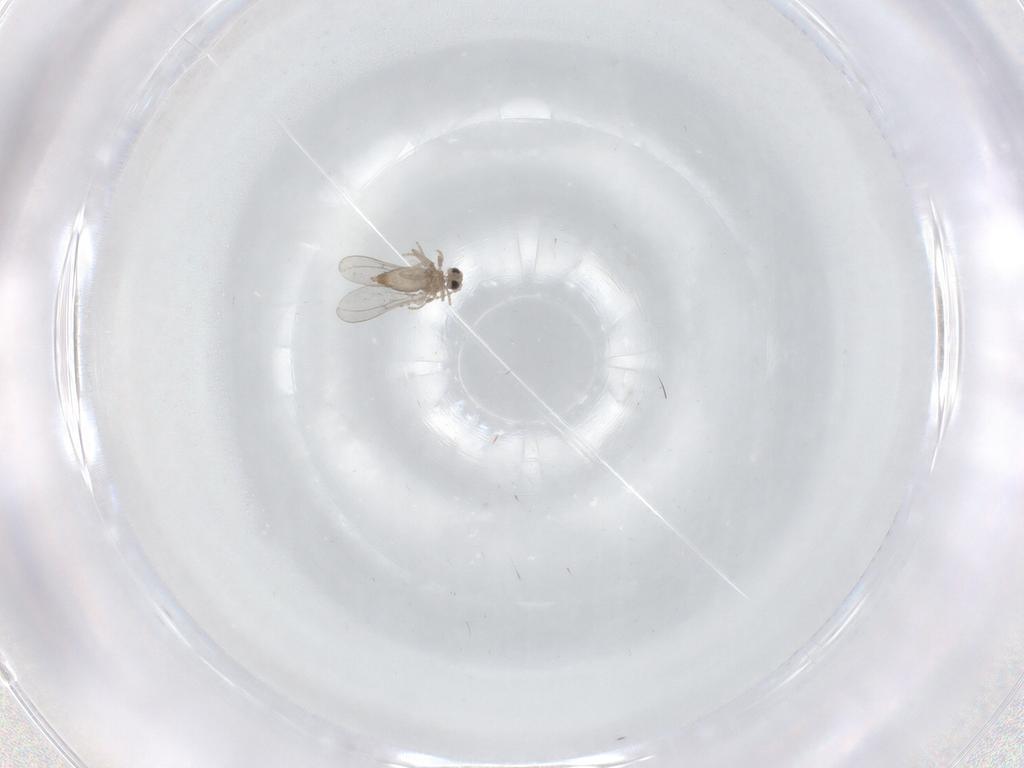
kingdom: Animalia
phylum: Arthropoda
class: Insecta
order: Diptera
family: Cecidomyiidae
